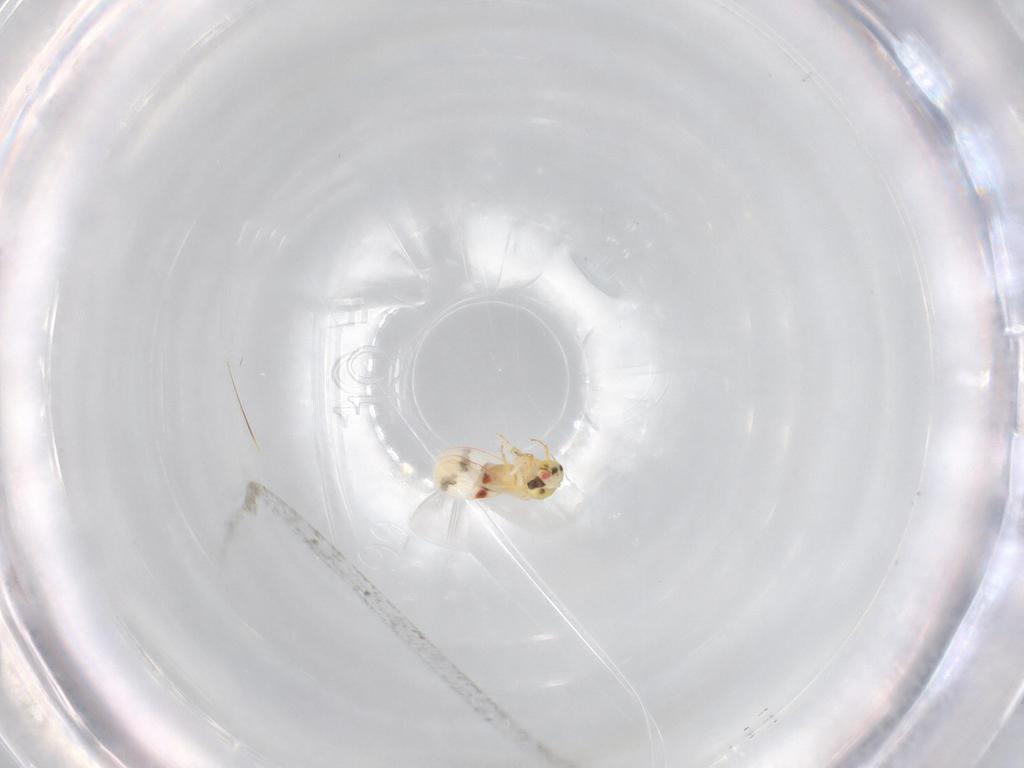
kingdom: Animalia
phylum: Arthropoda
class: Insecta
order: Hemiptera
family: Aleyrodidae
